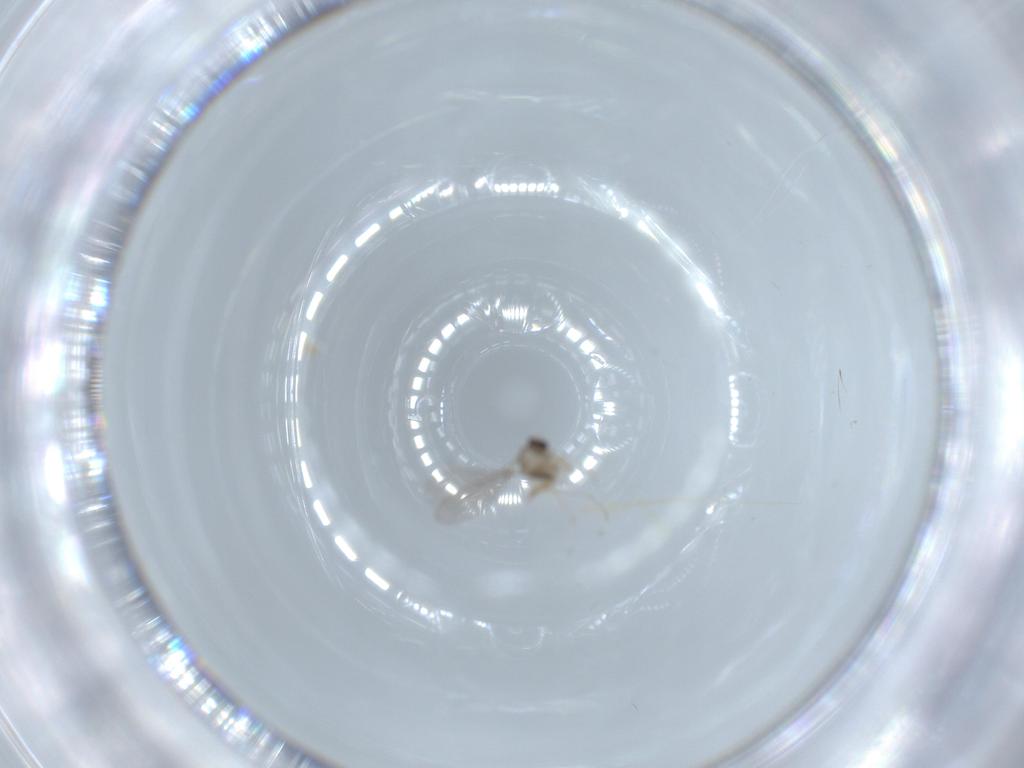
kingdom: Animalia
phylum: Arthropoda
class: Insecta
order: Diptera
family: Cecidomyiidae
